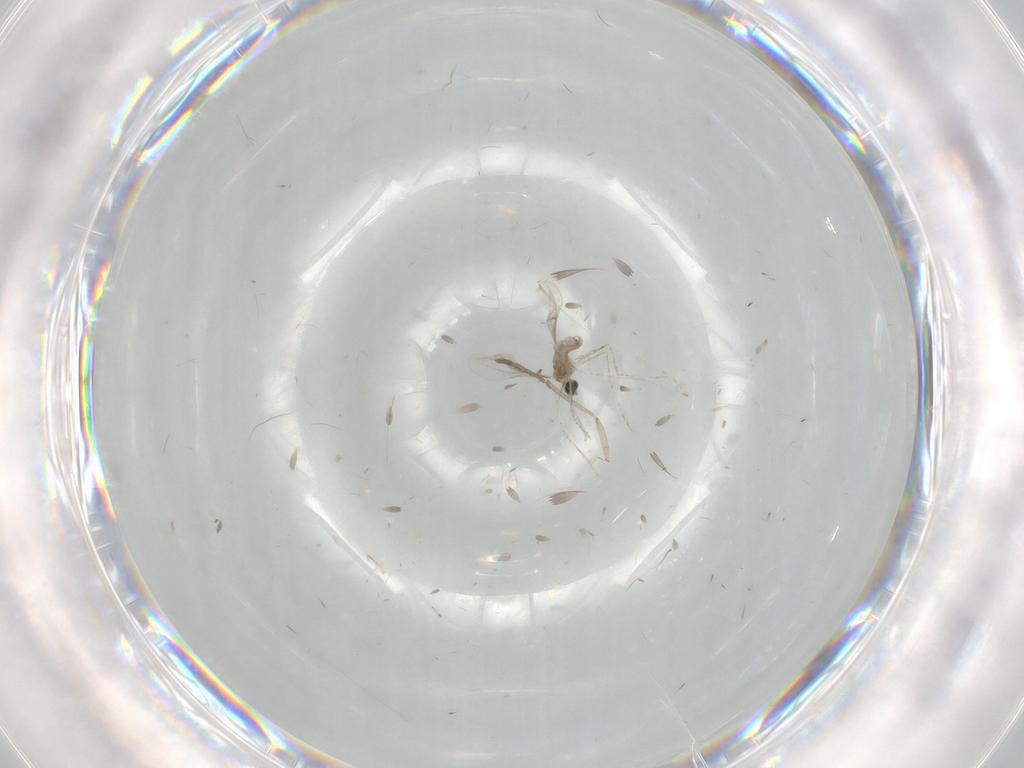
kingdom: Animalia
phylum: Arthropoda
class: Insecta
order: Diptera
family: Cecidomyiidae
